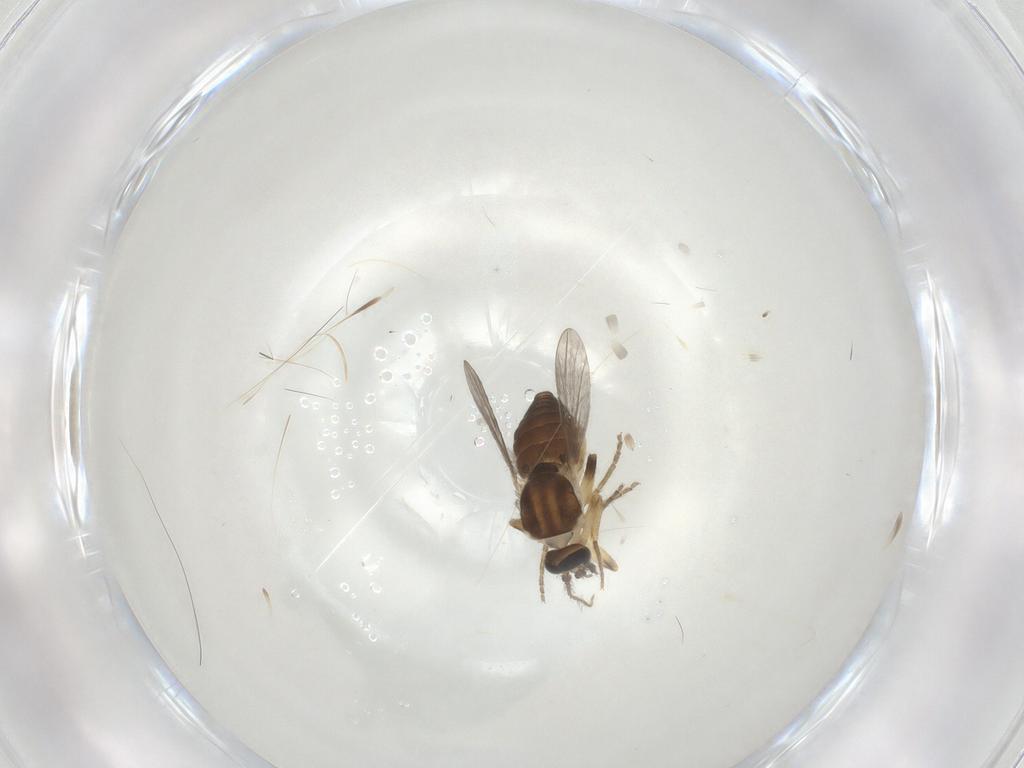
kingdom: Animalia
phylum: Arthropoda
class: Insecta
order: Diptera
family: Ceratopogonidae
